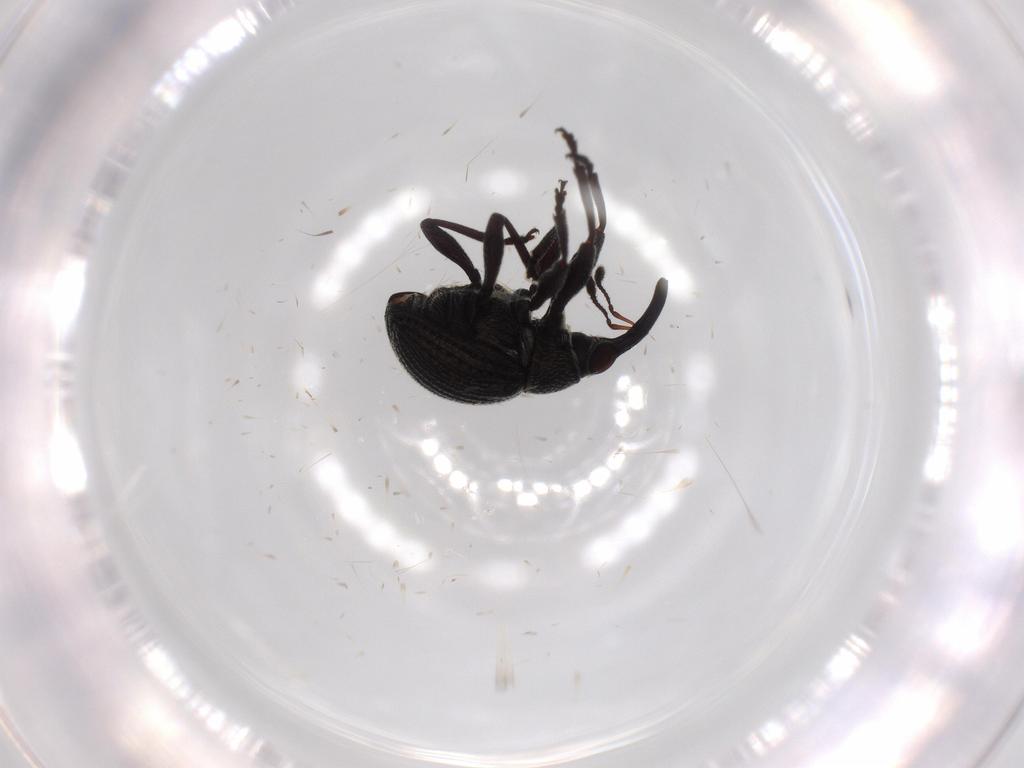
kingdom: Animalia
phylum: Arthropoda
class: Insecta
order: Coleoptera
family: Brentidae
